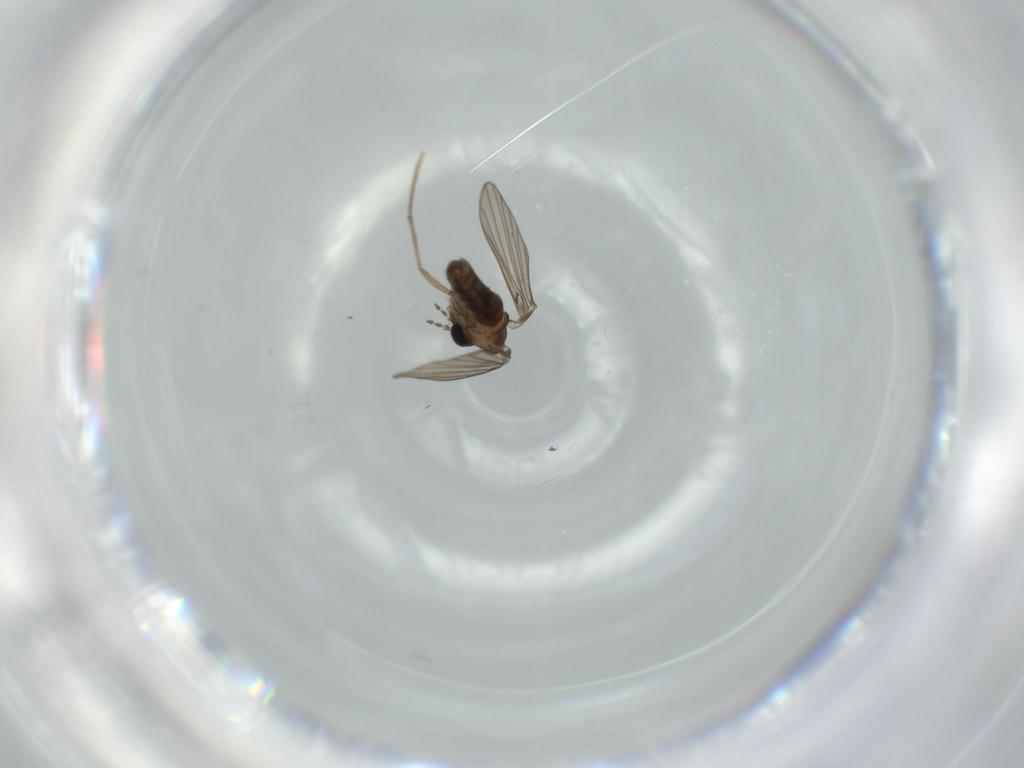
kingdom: Animalia
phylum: Arthropoda
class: Insecta
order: Diptera
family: Psychodidae
